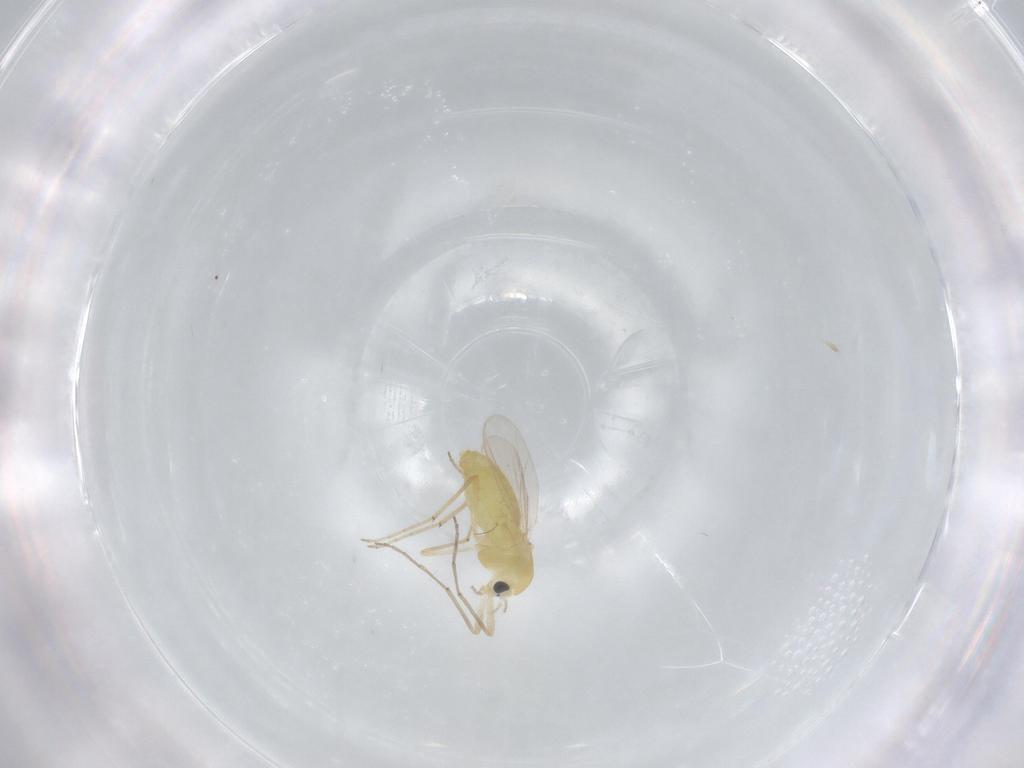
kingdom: Animalia
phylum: Arthropoda
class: Insecta
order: Diptera
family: Chironomidae
